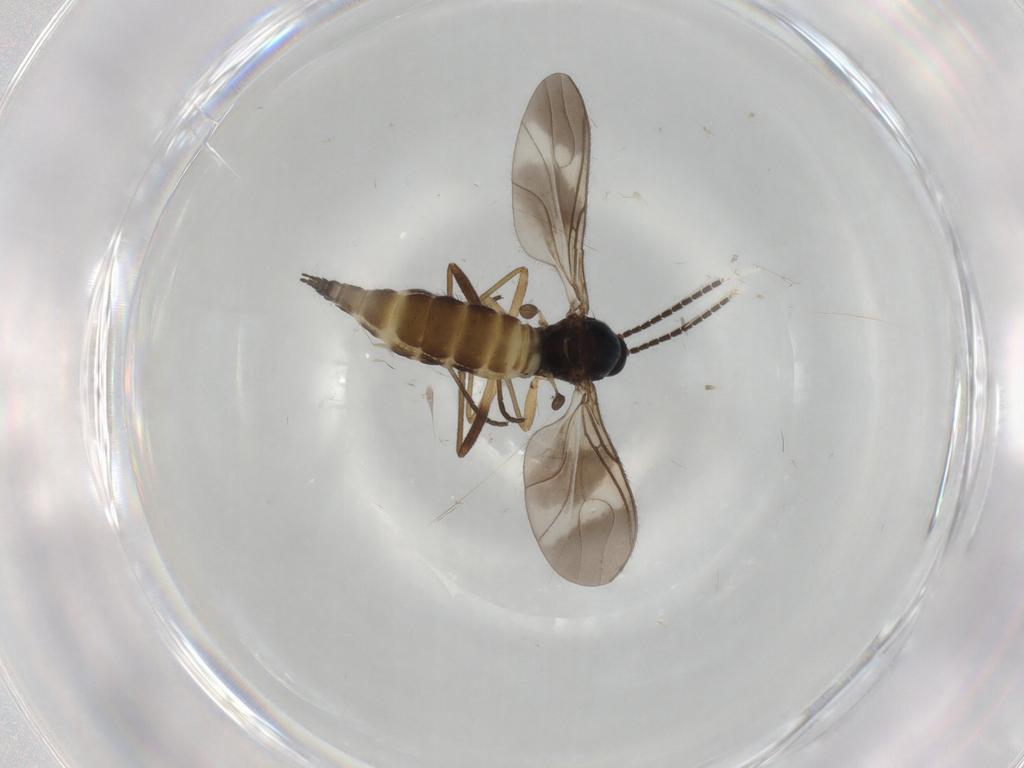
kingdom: Animalia
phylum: Arthropoda
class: Insecta
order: Diptera
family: Sciaridae
